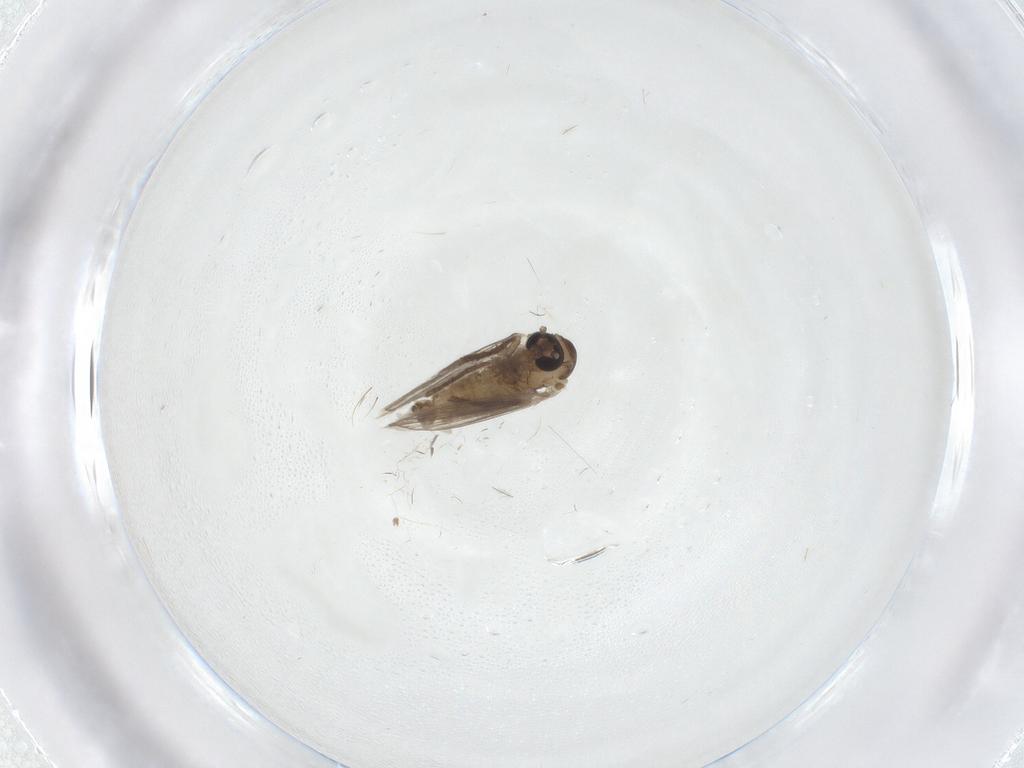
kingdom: Animalia
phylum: Arthropoda
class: Insecta
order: Diptera
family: Psychodidae
